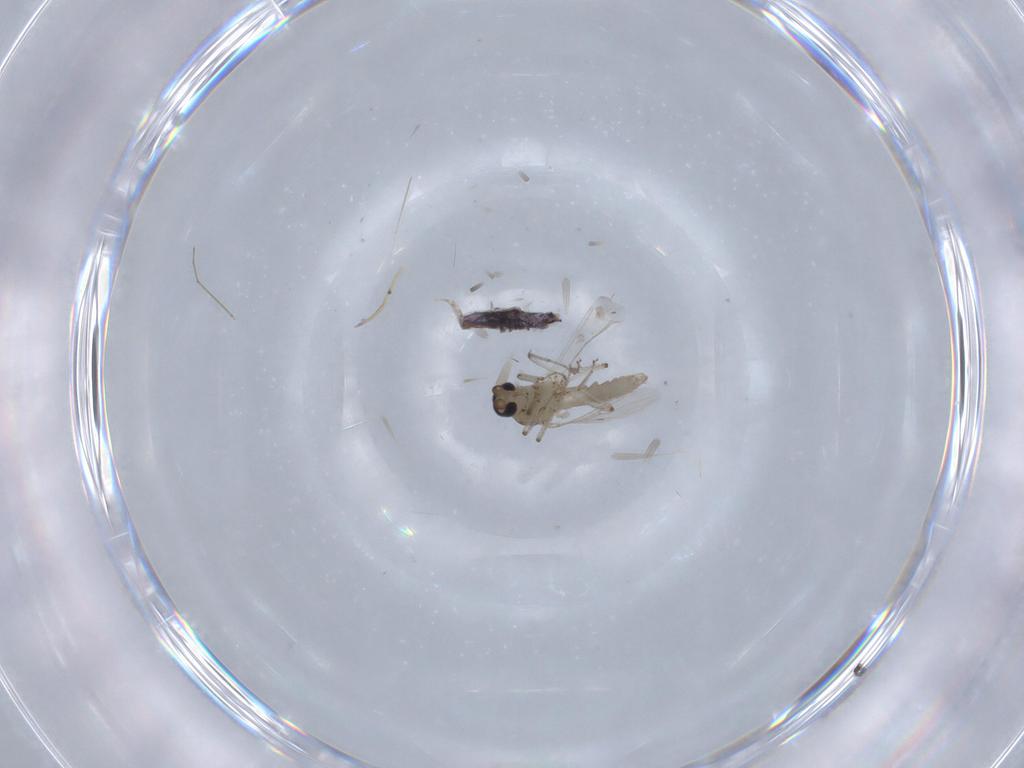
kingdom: Animalia
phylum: Arthropoda
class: Insecta
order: Diptera
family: Ceratopogonidae
